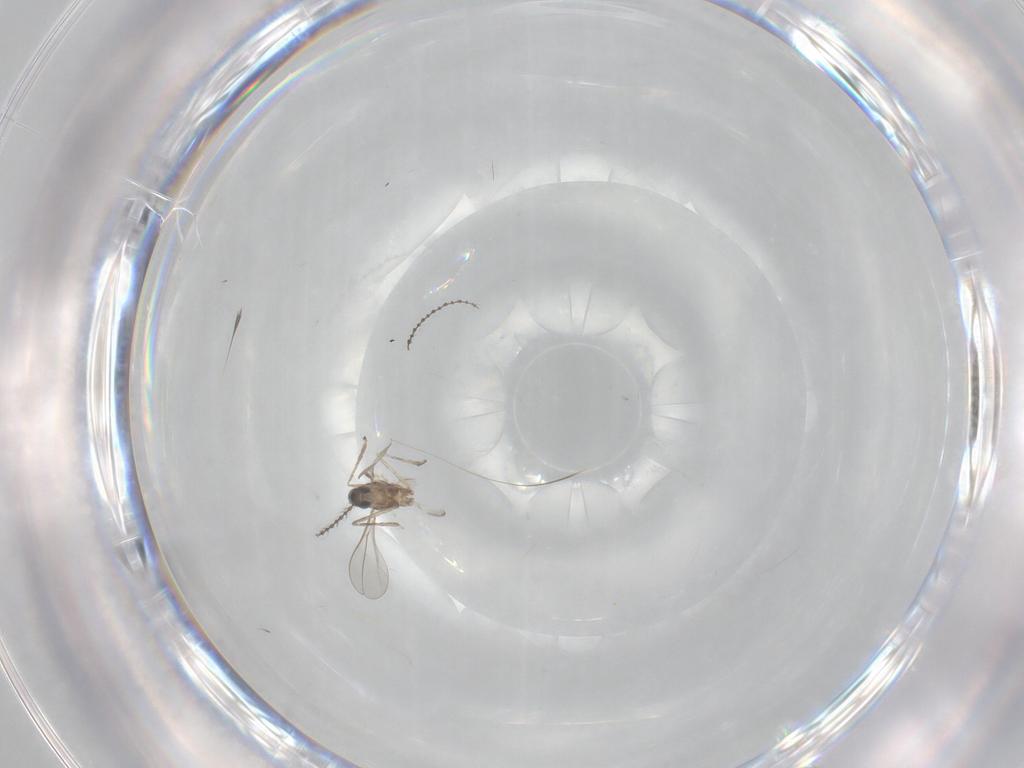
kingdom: Animalia
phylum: Arthropoda
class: Insecta
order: Diptera
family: Cecidomyiidae
